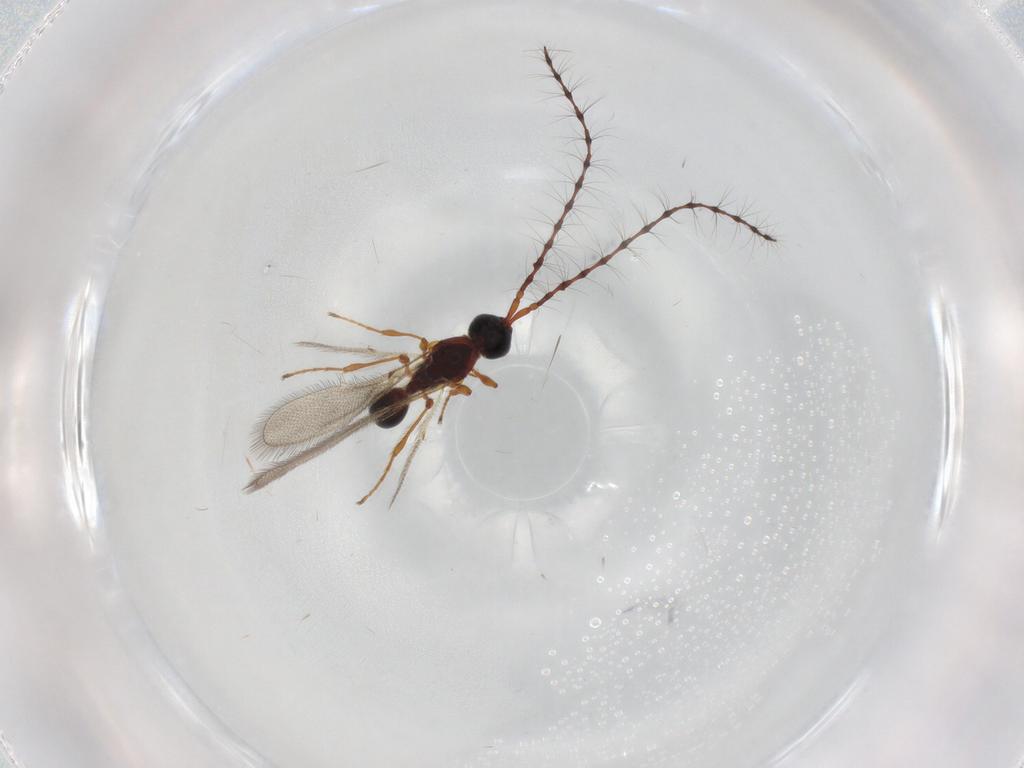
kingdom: Animalia
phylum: Arthropoda
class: Insecta
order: Hymenoptera
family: Diapriidae
